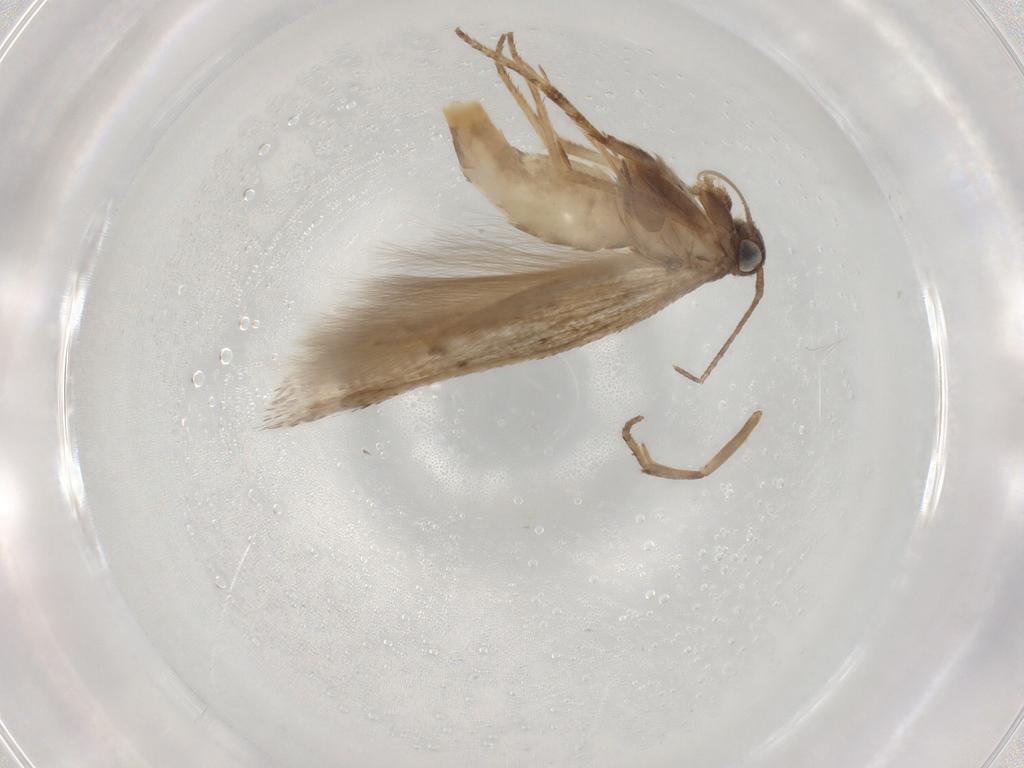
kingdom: Animalia
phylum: Arthropoda
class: Insecta
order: Lepidoptera
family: Gelechiidae
